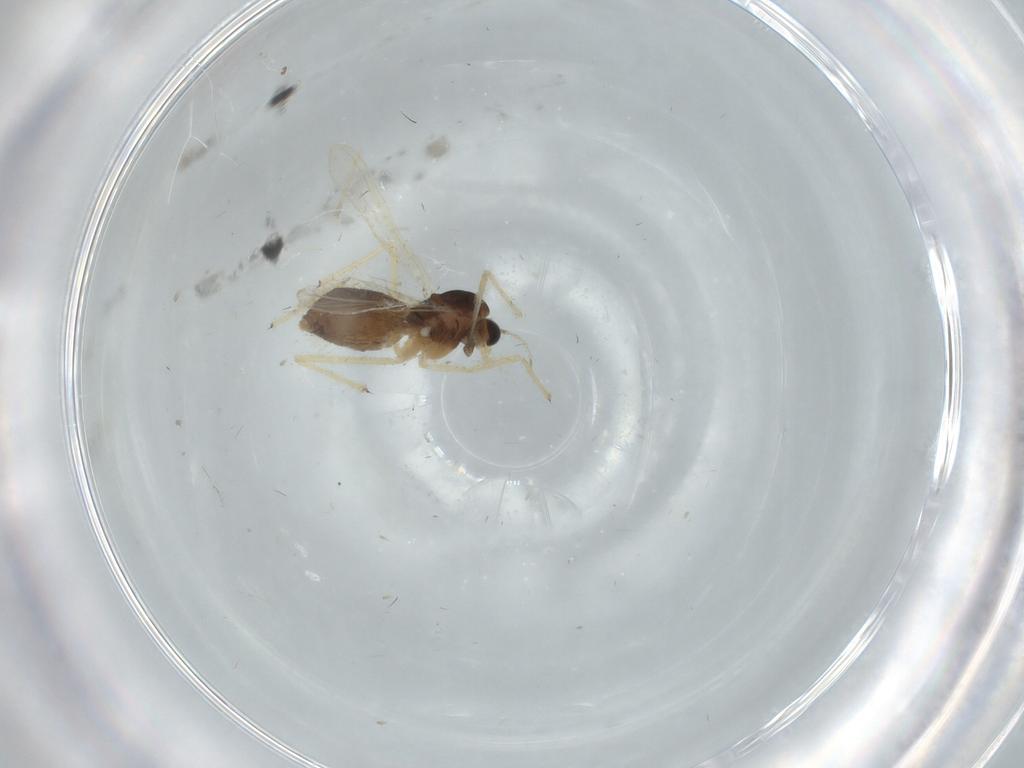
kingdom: Animalia
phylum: Arthropoda
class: Insecta
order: Diptera
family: Chironomidae
